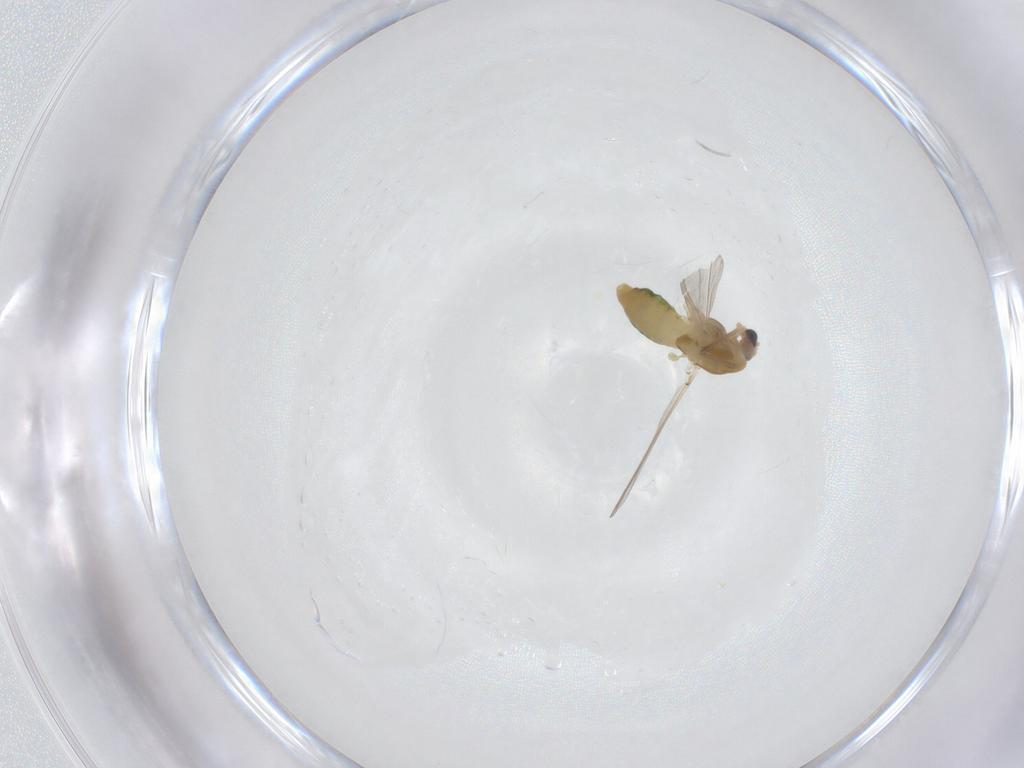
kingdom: Animalia
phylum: Arthropoda
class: Insecta
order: Diptera
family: Chironomidae
